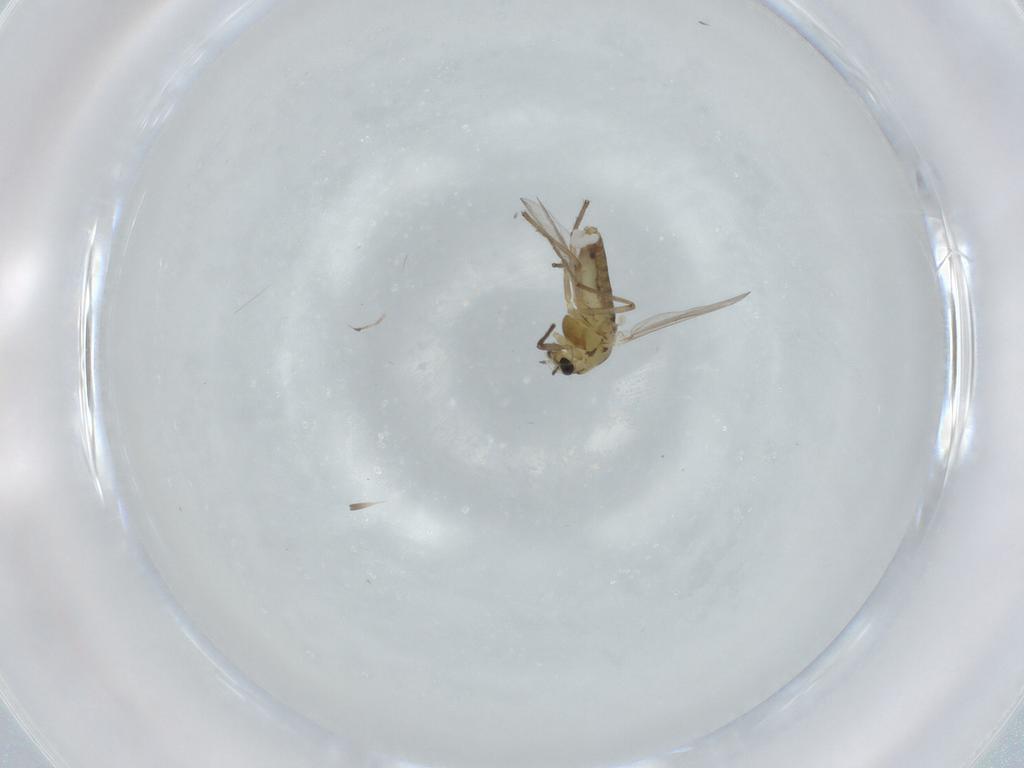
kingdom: Animalia
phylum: Arthropoda
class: Insecta
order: Diptera
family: Chironomidae
